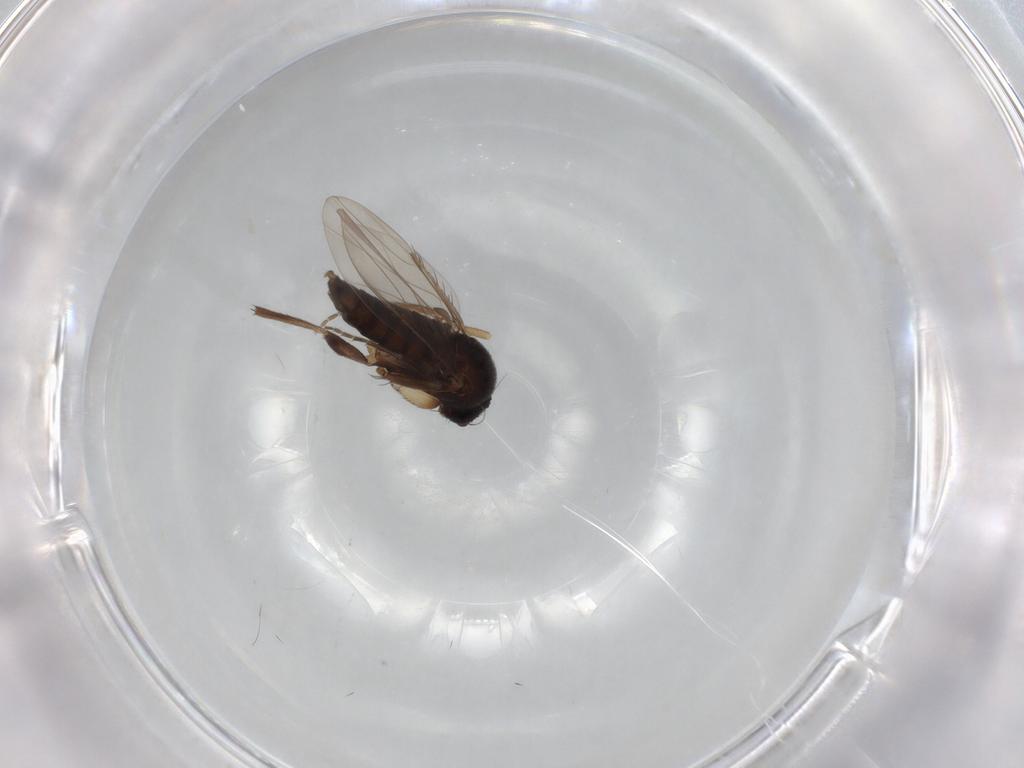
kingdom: Animalia
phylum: Arthropoda
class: Insecta
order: Diptera
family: Phoridae
